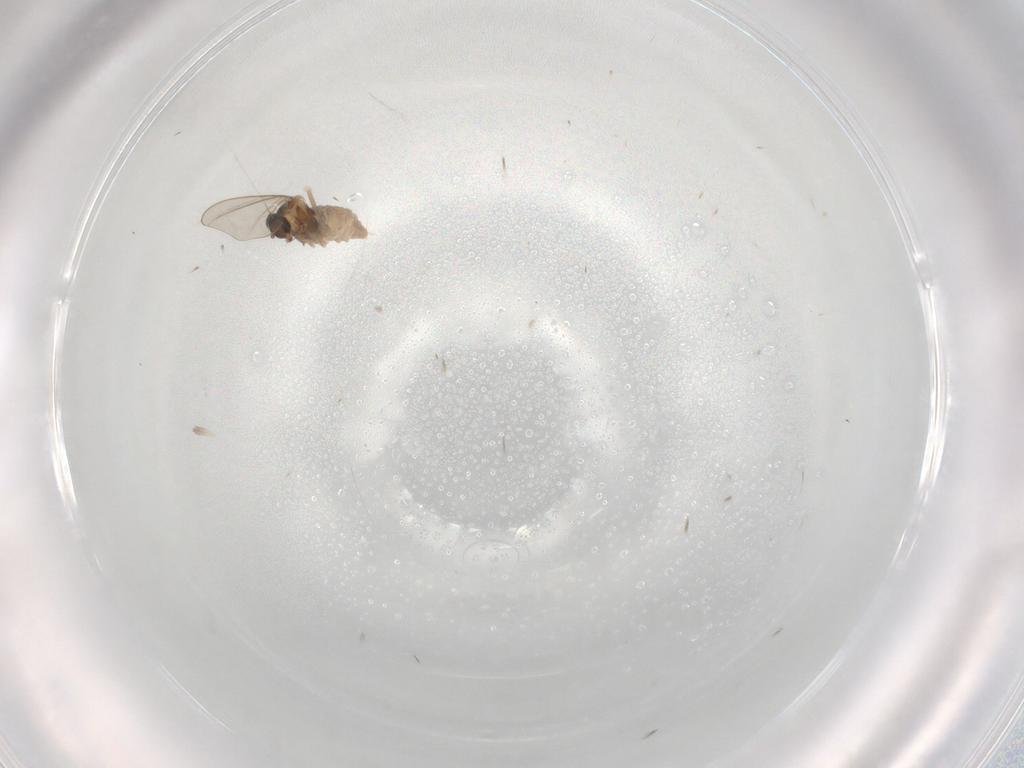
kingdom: Animalia
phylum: Arthropoda
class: Insecta
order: Diptera
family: Cecidomyiidae
